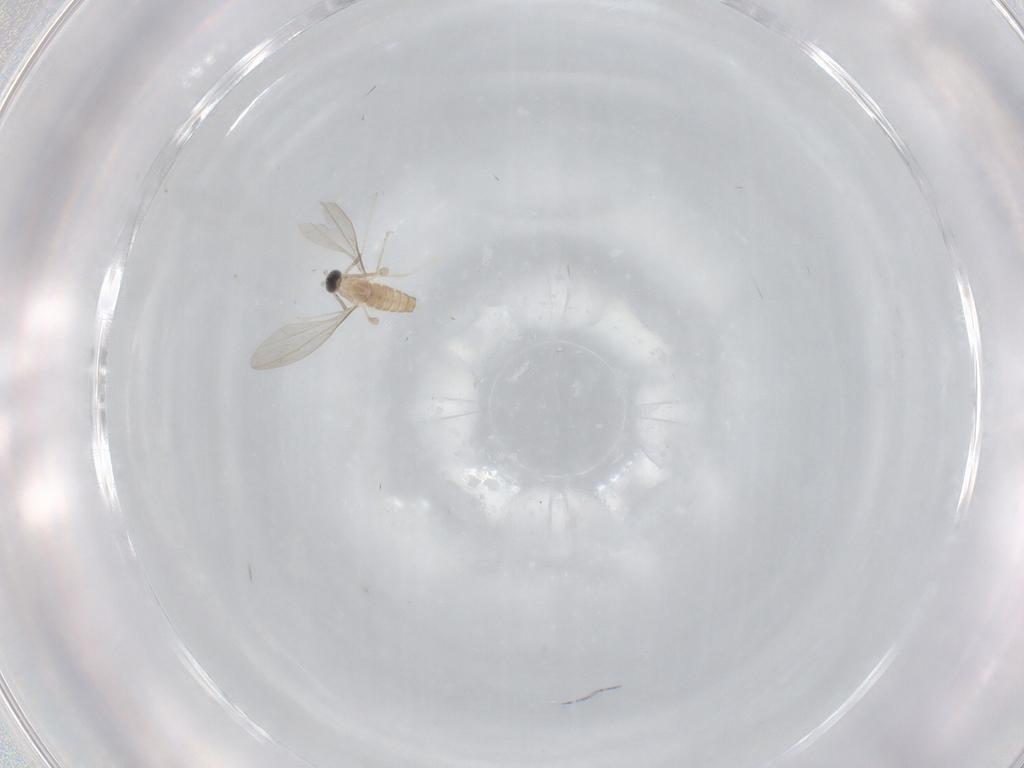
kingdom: Animalia
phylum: Arthropoda
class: Insecta
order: Diptera
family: Cecidomyiidae
